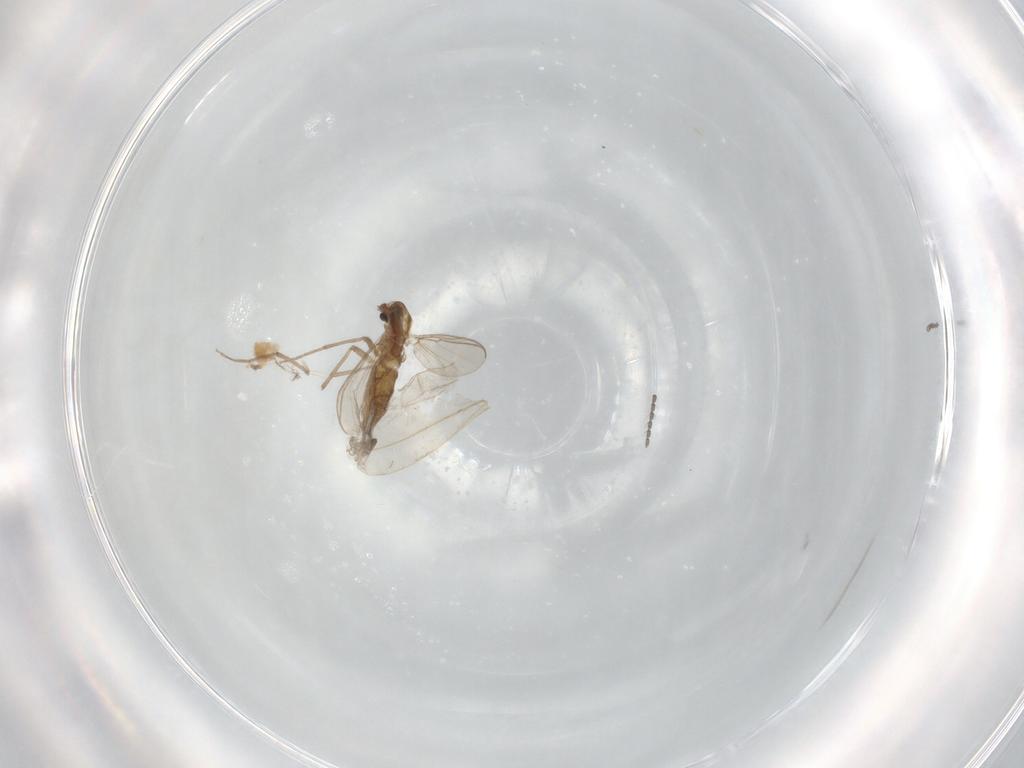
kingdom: Animalia
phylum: Arthropoda
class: Insecta
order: Diptera
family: Chironomidae
